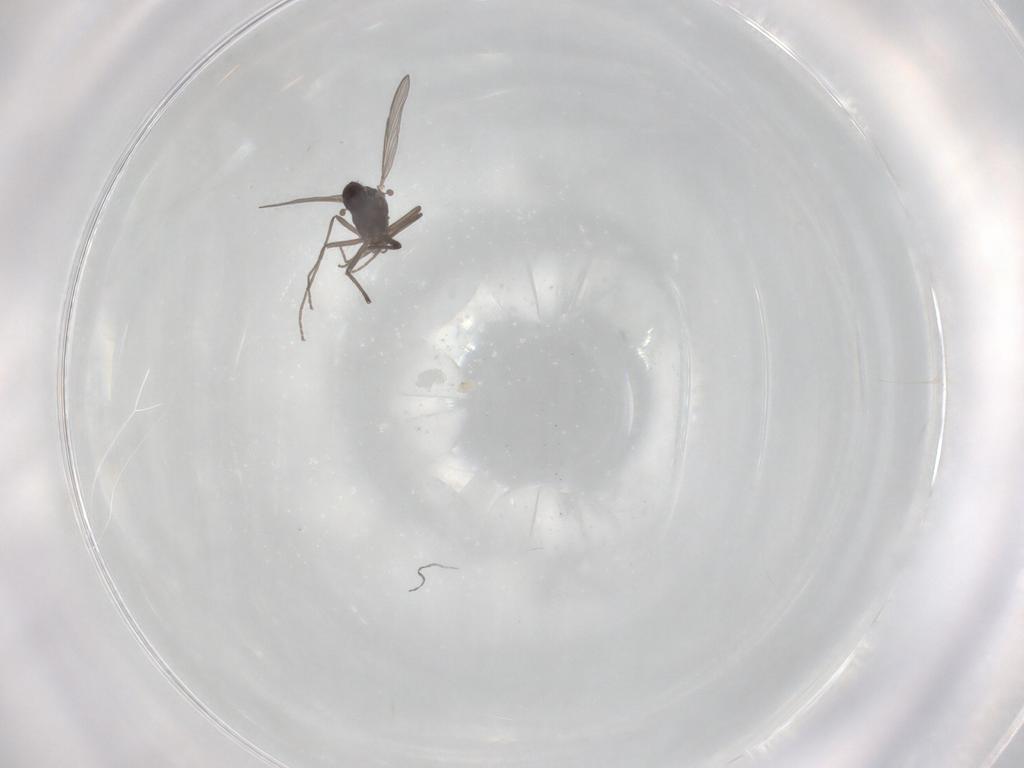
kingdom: Animalia
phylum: Arthropoda
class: Insecta
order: Diptera
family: Chironomidae
